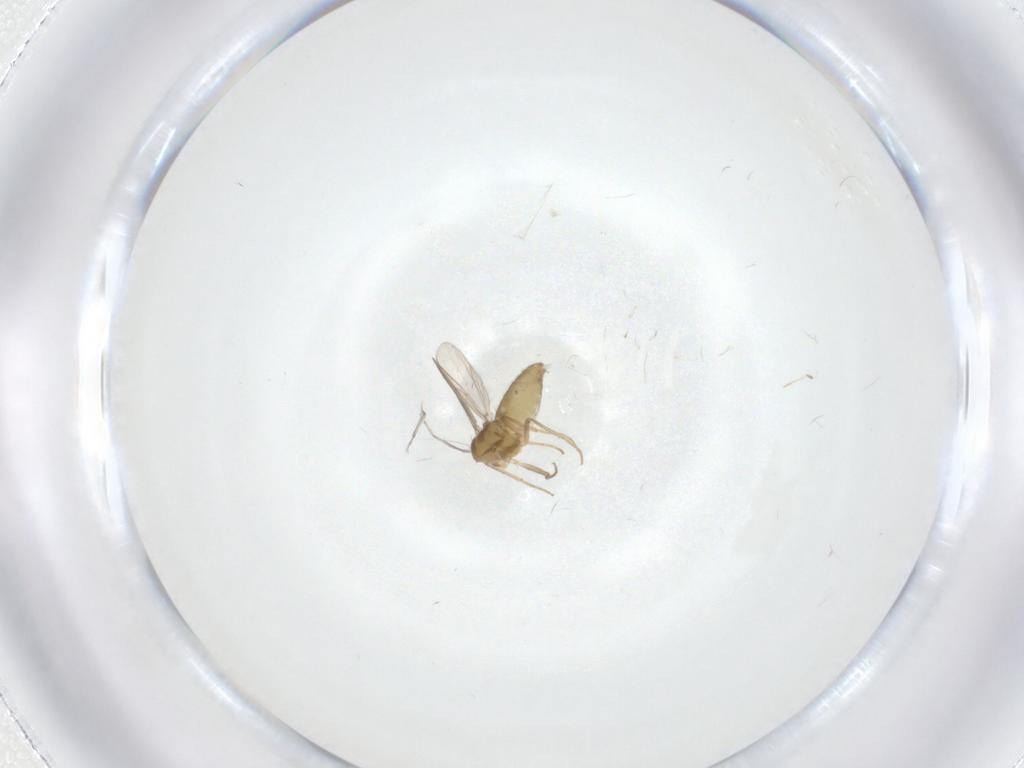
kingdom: Animalia
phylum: Arthropoda
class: Insecta
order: Diptera
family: Chironomidae
